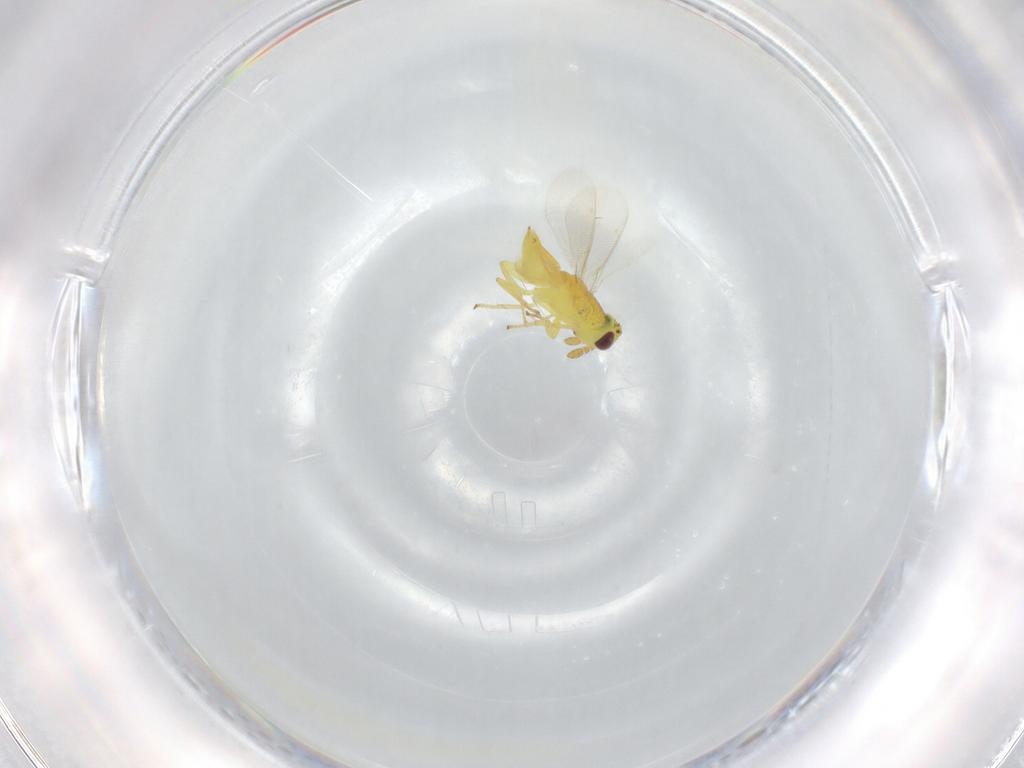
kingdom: Animalia
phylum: Arthropoda
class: Insecta
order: Hymenoptera
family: Aphelinidae
